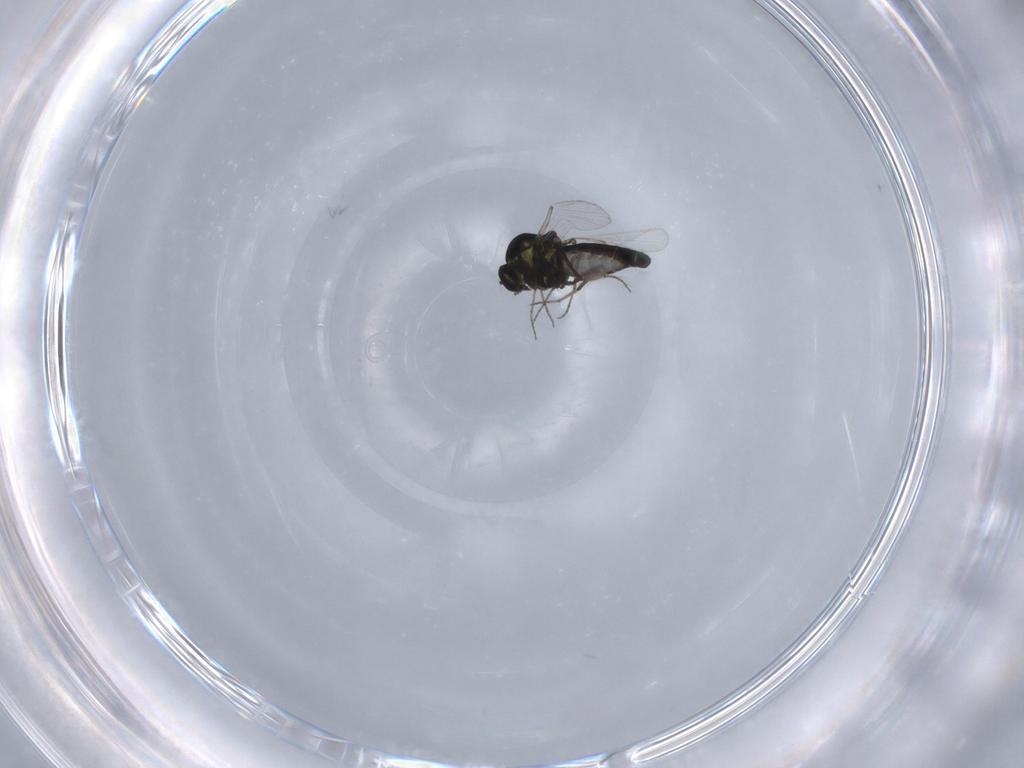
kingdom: Animalia
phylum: Arthropoda
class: Insecta
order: Diptera
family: Ceratopogonidae
